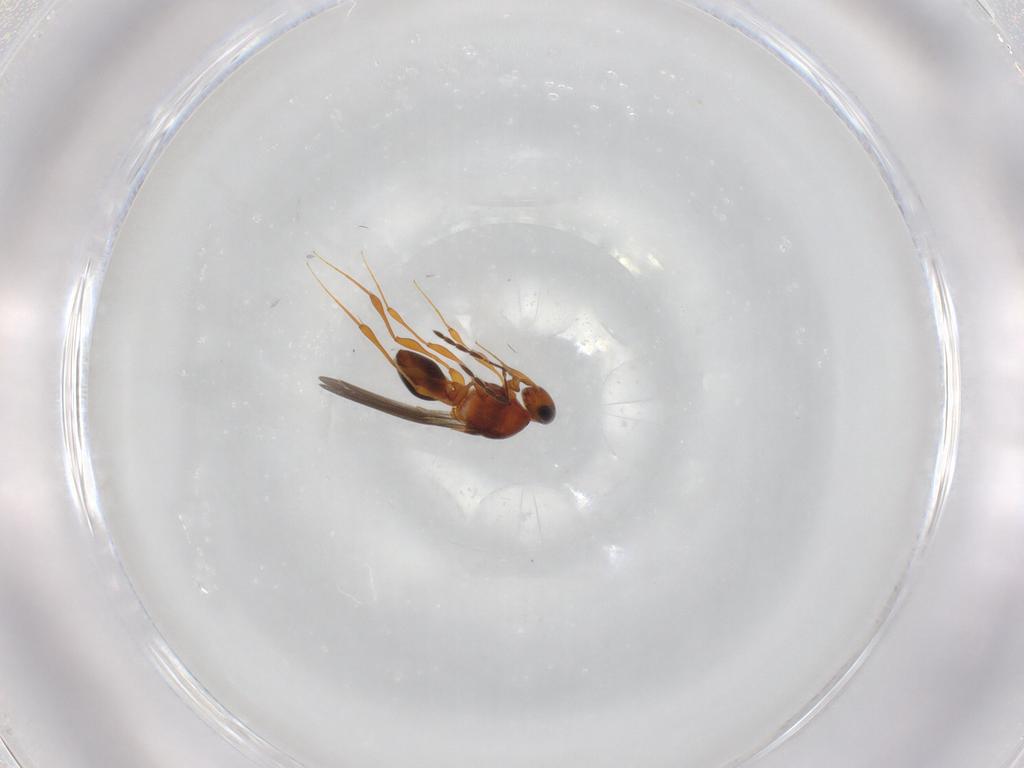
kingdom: Animalia
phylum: Arthropoda
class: Insecta
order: Hymenoptera
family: Platygastridae
